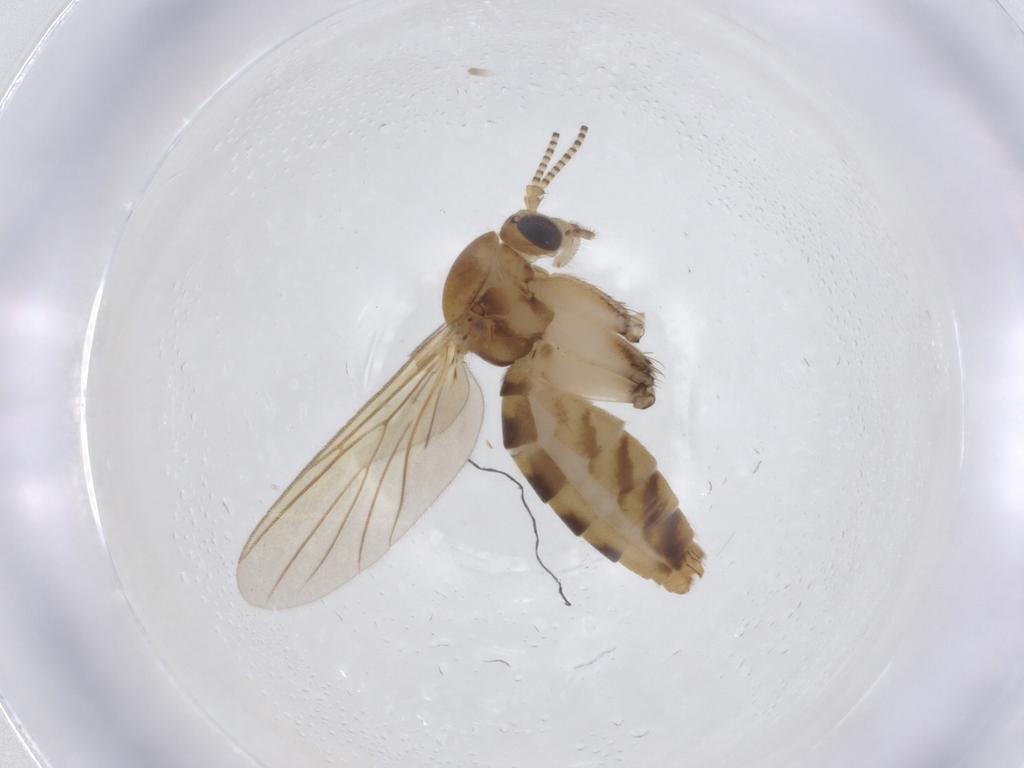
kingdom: Animalia
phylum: Arthropoda
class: Insecta
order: Diptera
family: Mycetophilidae
